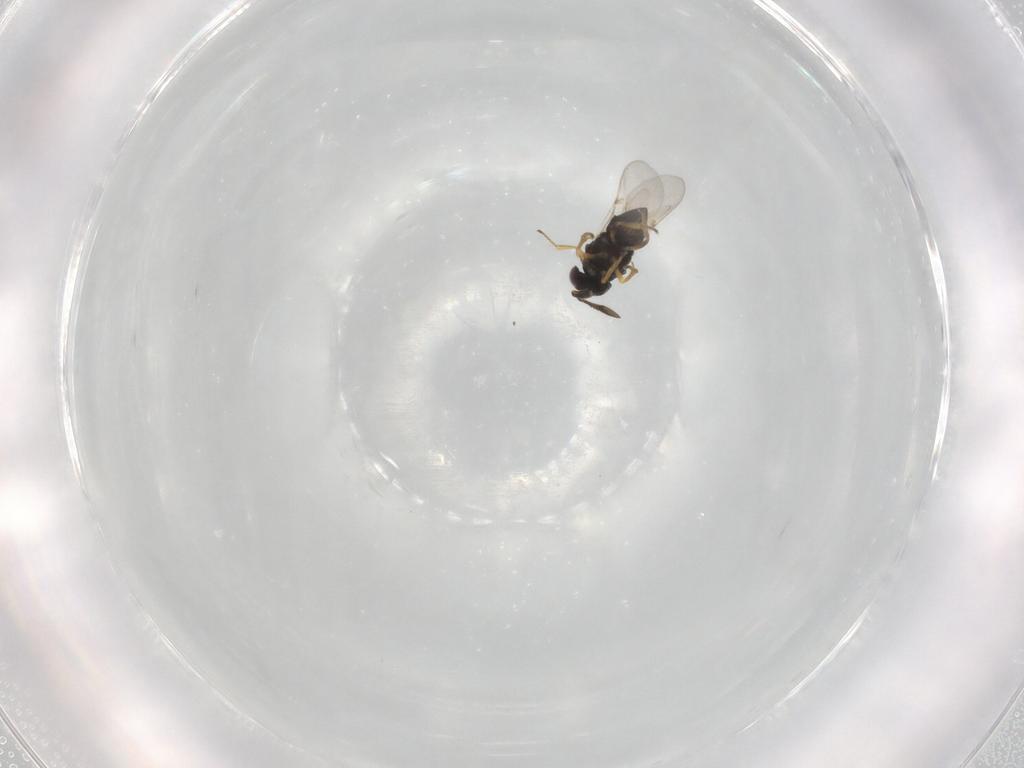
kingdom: Animalia
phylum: Arthropoda
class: Insecta
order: Hymenoptera
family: Encyrtidae
